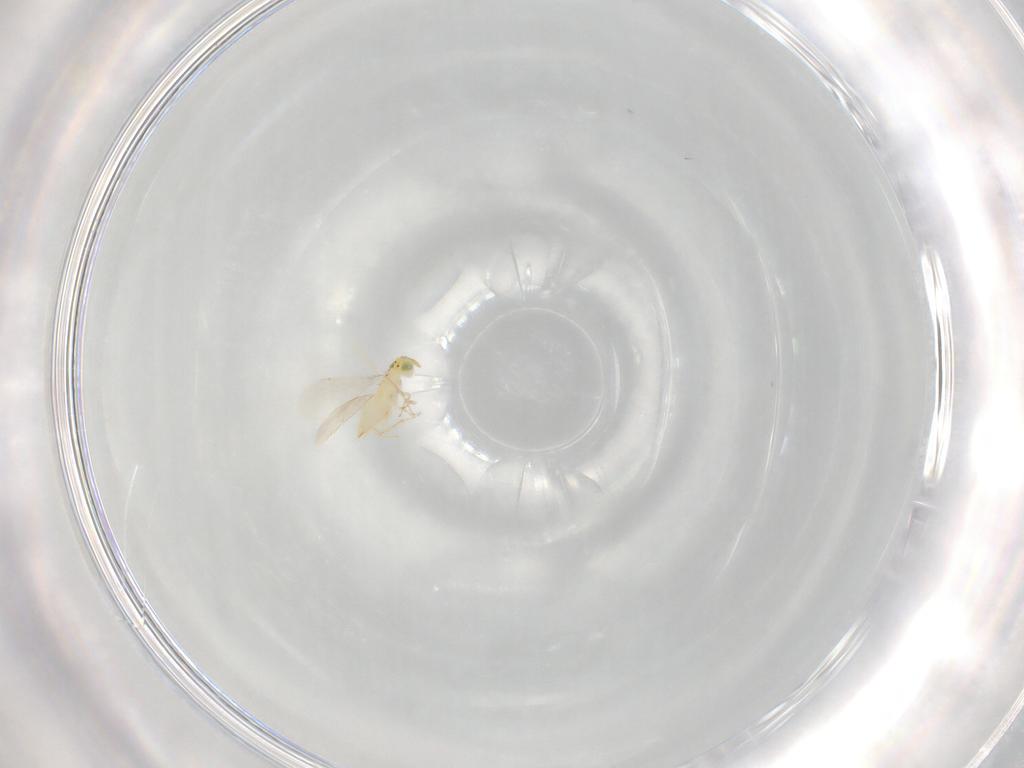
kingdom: Animalia
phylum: Arthropoda
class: Insecta
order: Hymenoptera
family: Aphelinidae
